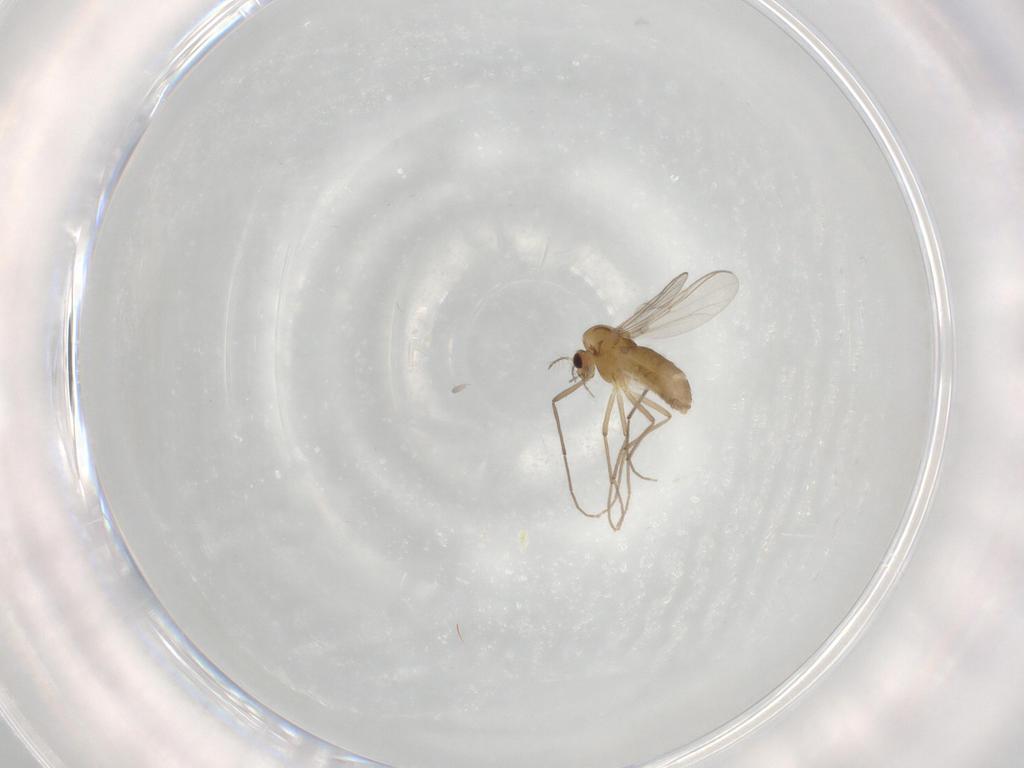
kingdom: Animalia
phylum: Arthropoda
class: Insecta
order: Diptera
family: Chironomidae
